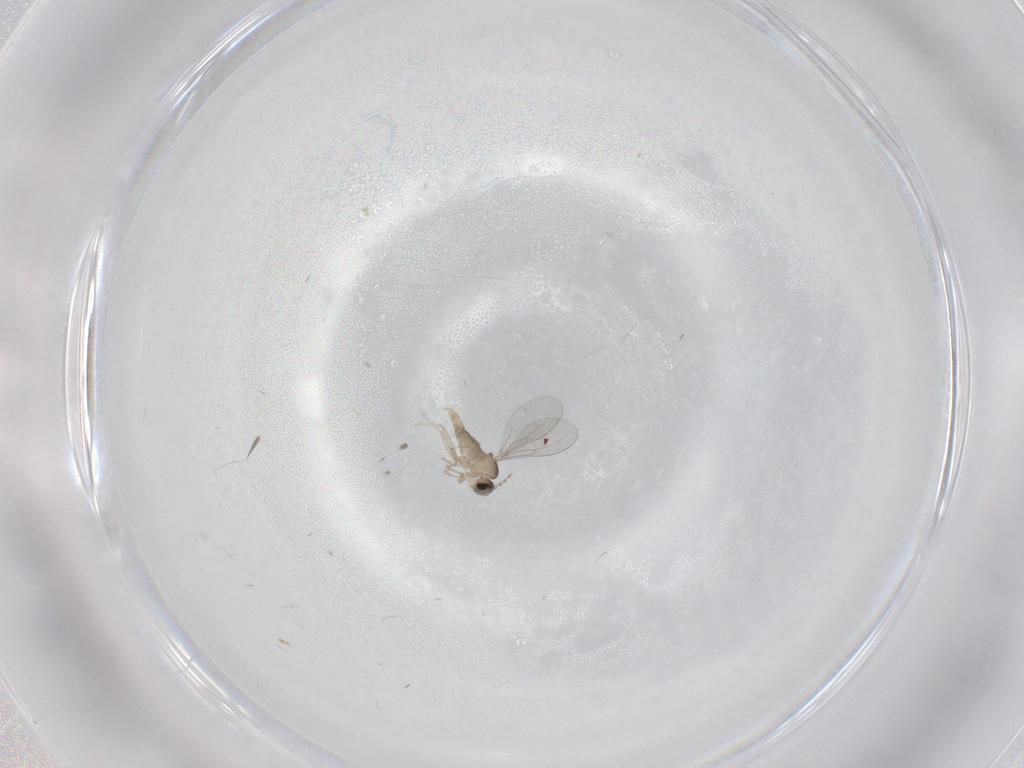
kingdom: Animalia
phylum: Arthropoda
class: Insecta
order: Diptera
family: Cecidomyiidae
